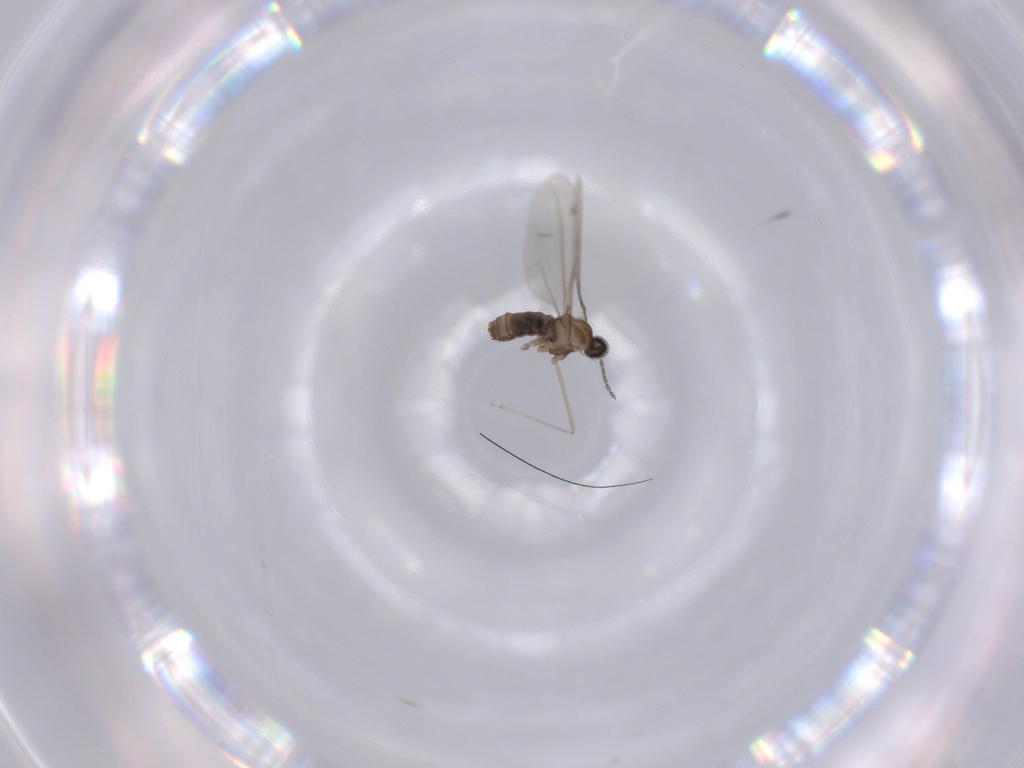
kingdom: Animalia
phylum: Arthropoda
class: Insecta
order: Diptera
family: Cecidomyiidae
